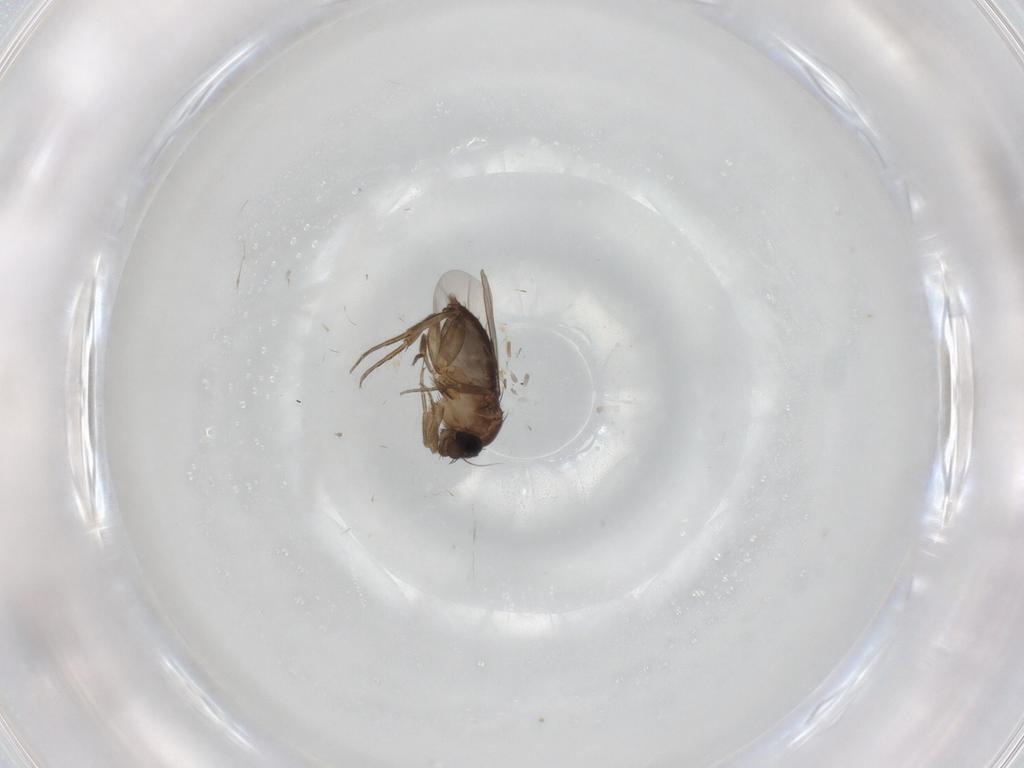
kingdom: Animalia
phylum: Arthropoda
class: Insecta
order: Diptera
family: Phoridae
